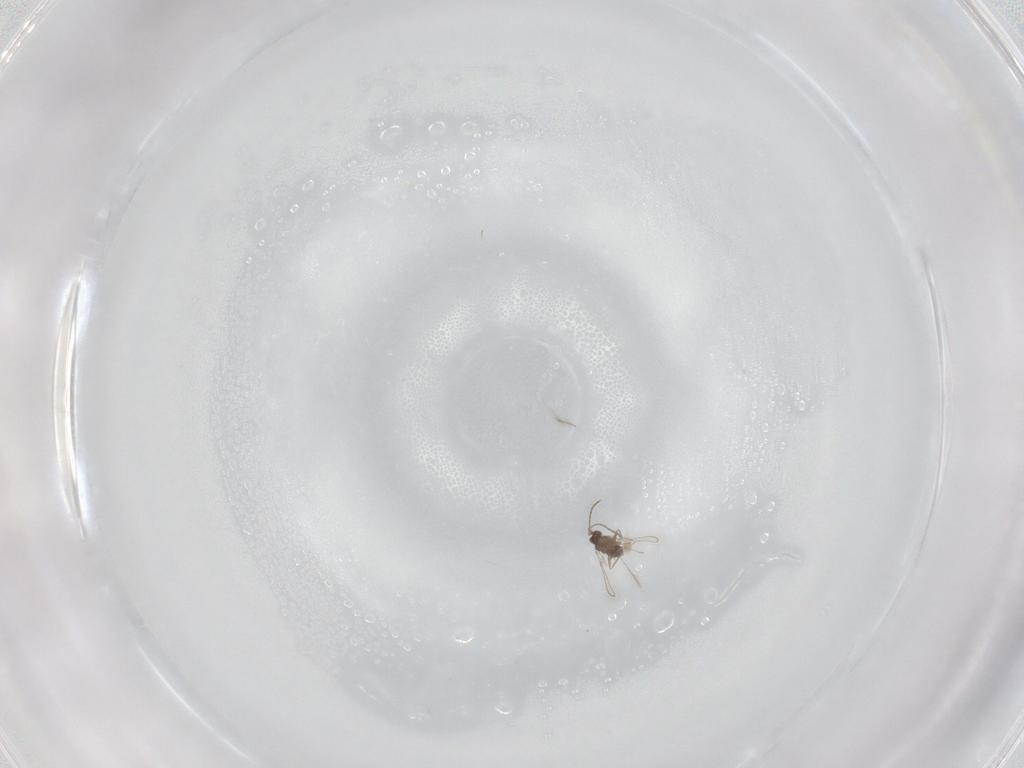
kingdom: Animalia
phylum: Arthropoda
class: Insecta
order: Hymenoptera
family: Mymaridae
